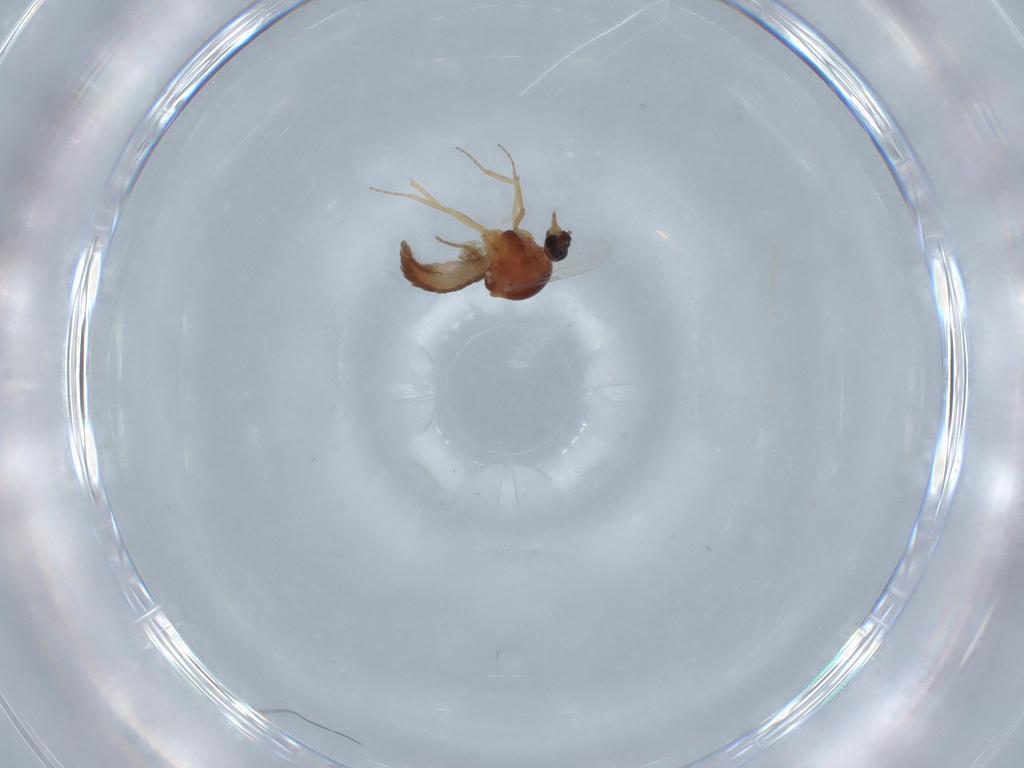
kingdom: Animalia
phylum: Arthropoda
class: Insecta
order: Diptera
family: Ceratopogonidae
